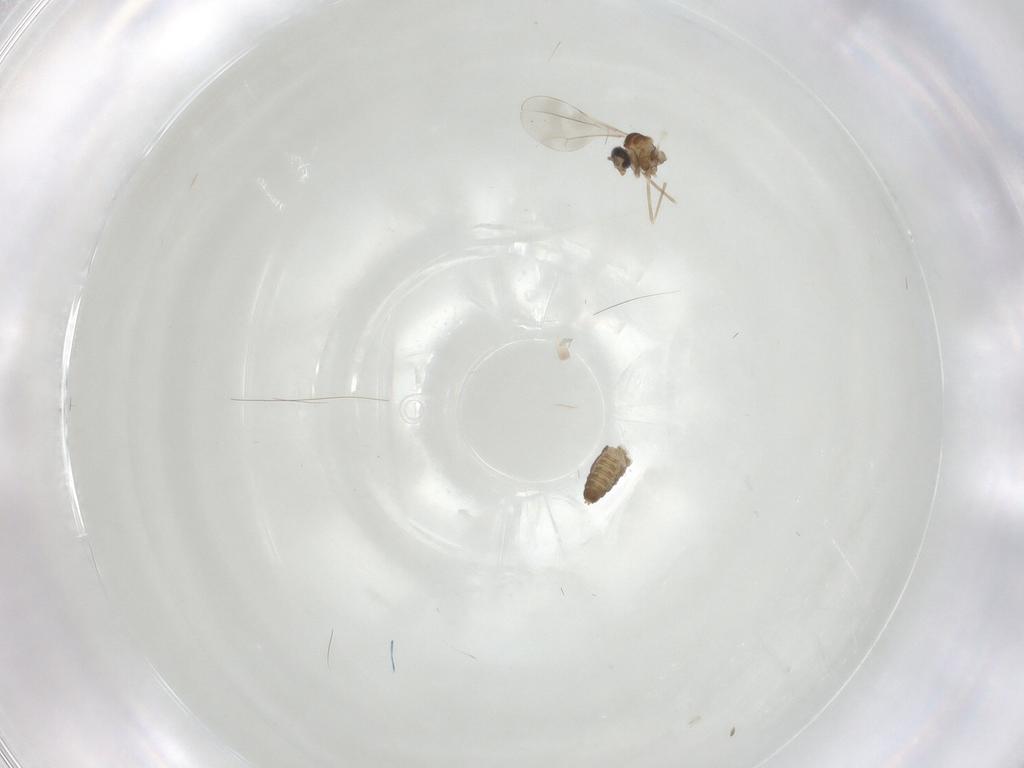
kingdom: Animalia
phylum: Arthropoda
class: Insecta
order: Diptera
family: Cecidomyiidae
